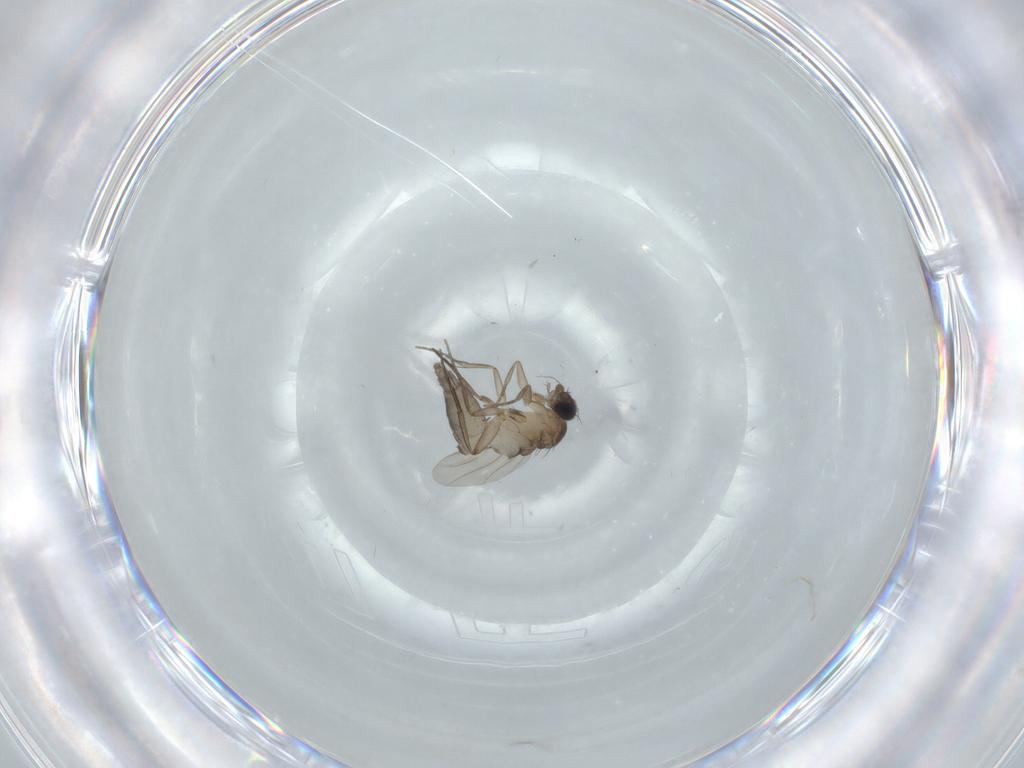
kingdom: Animalia
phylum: Arthropoda
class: Insecta
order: Diptera
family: Phoridae
